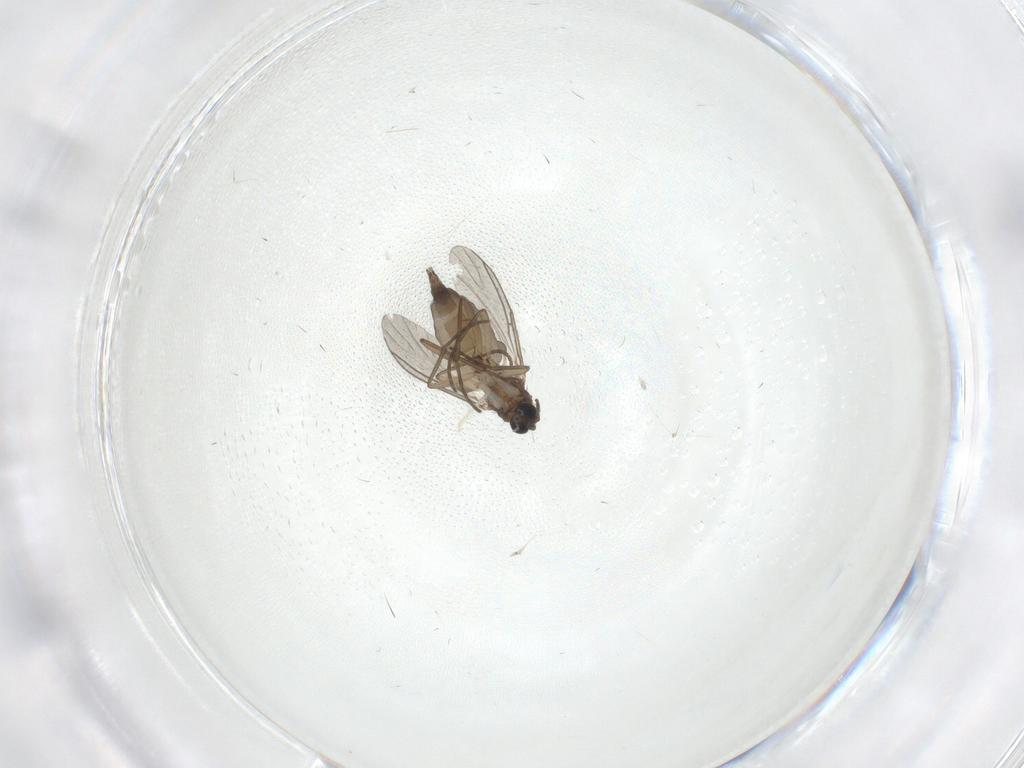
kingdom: Animalia
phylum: Arthropoda
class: Insecta
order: Diptera
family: Sciaridae
